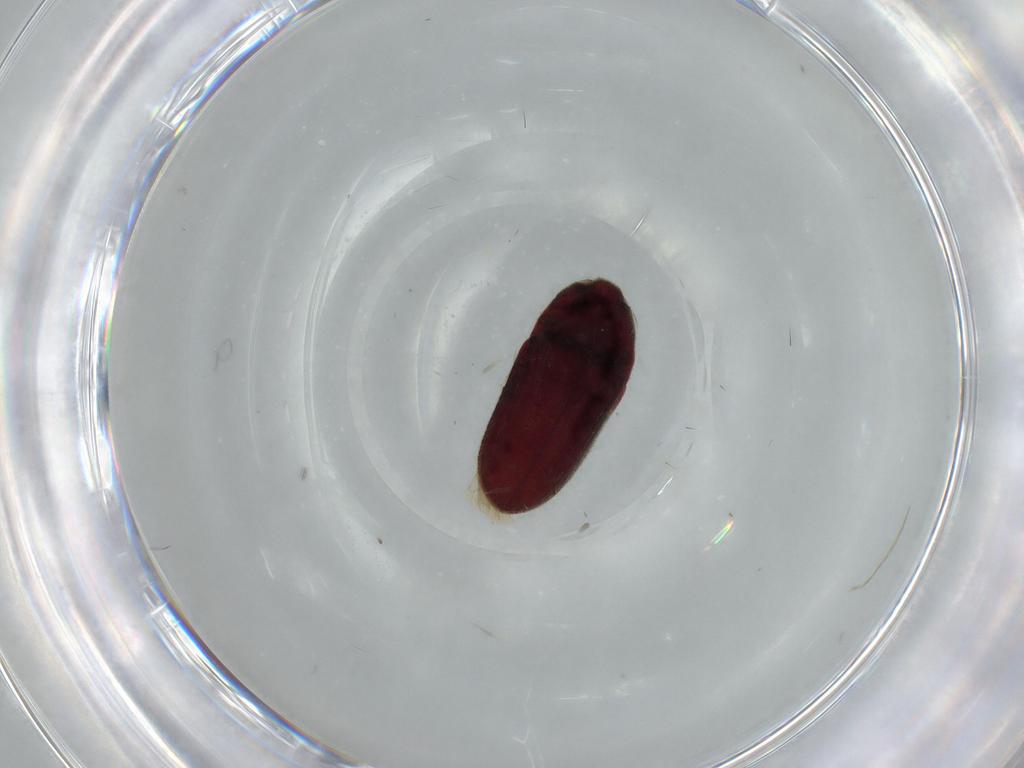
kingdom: Animalia
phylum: Arthropoda
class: Insecta
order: Coleoptera
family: Throscidae
